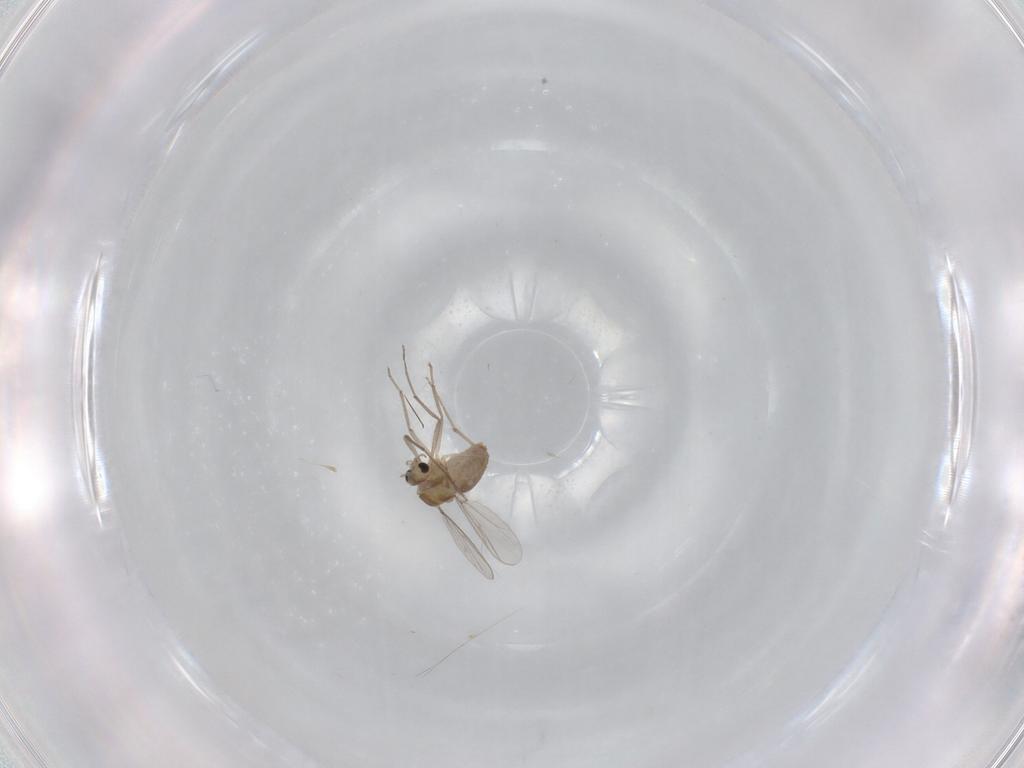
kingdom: Animalia
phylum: Arthropoda
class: Insecta
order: Diptera
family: Chironomidae
